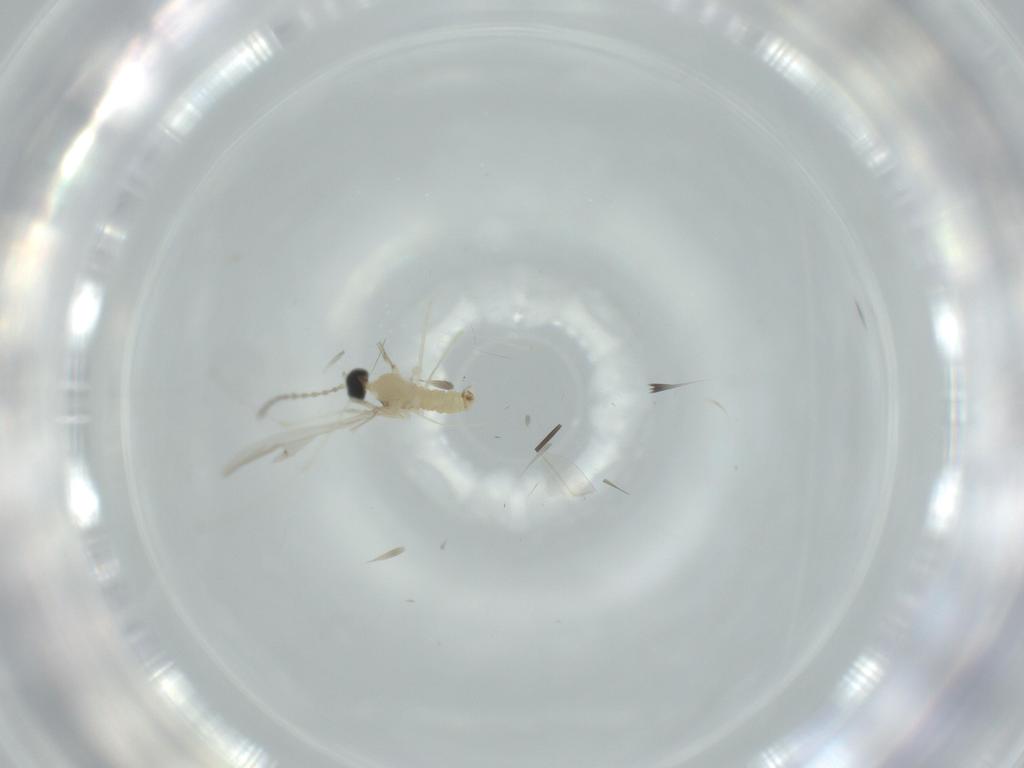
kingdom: Animalia
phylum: Arthropoda
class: Insecta
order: Diptera
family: Cecidomyiidae
